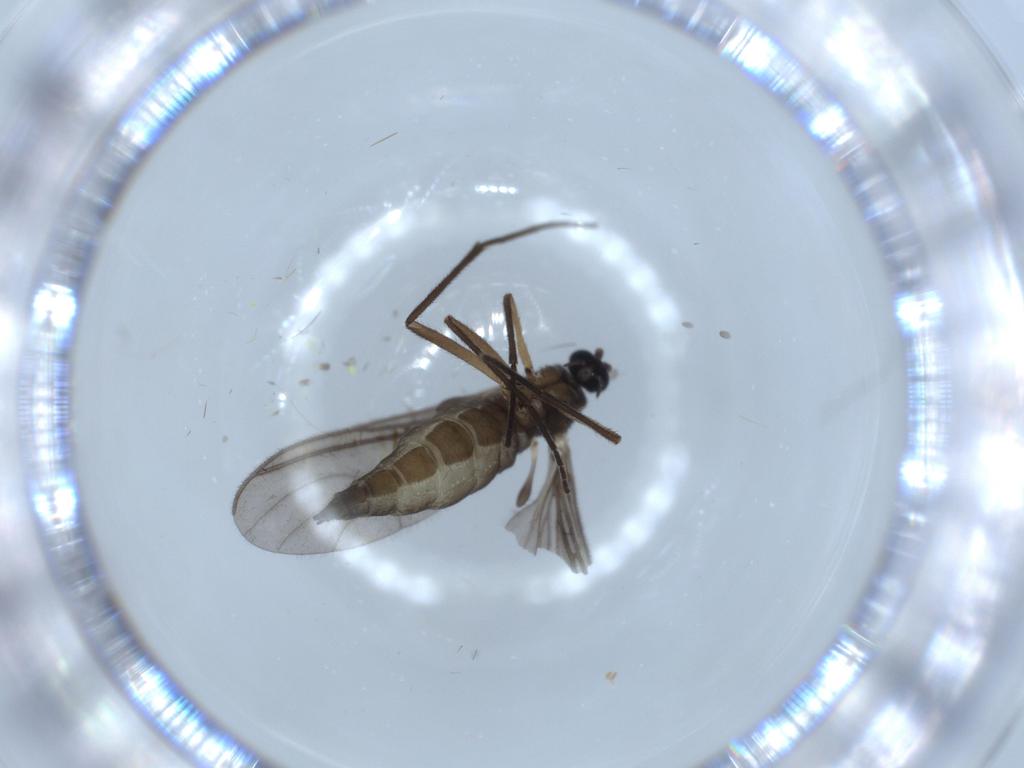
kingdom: Animalia
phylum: Arthropoda
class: Insecta
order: Diptera
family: Sciaridae
